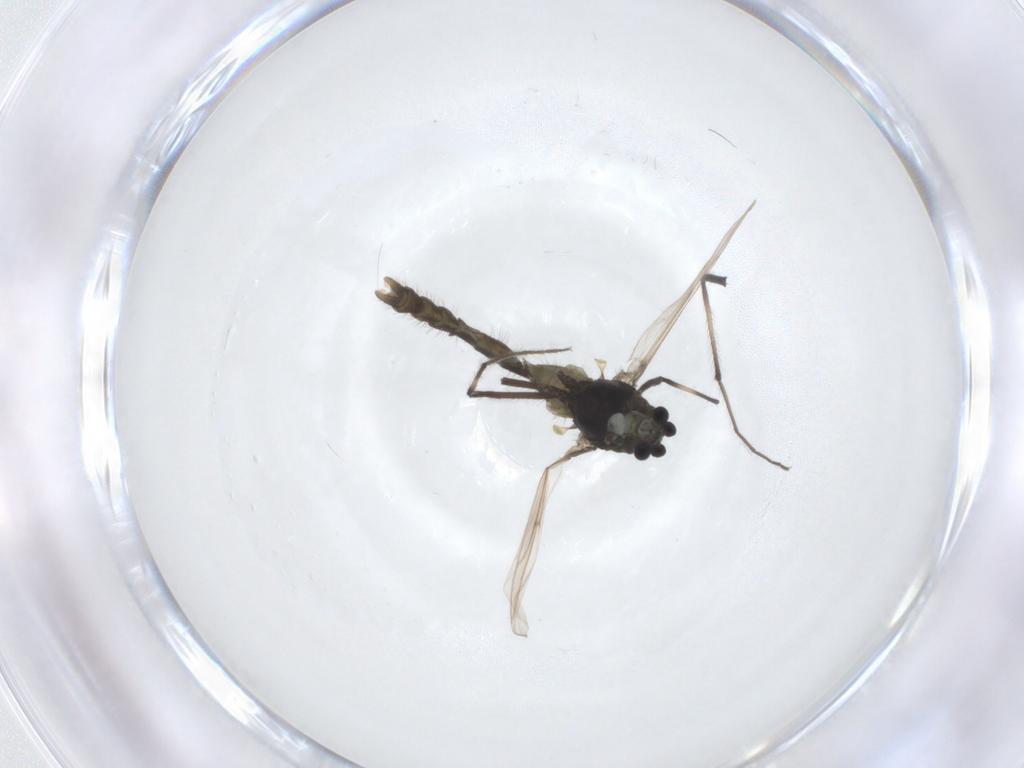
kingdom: Animalia
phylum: Arthropoda
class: Insecta
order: Diptera
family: Chironomidae
